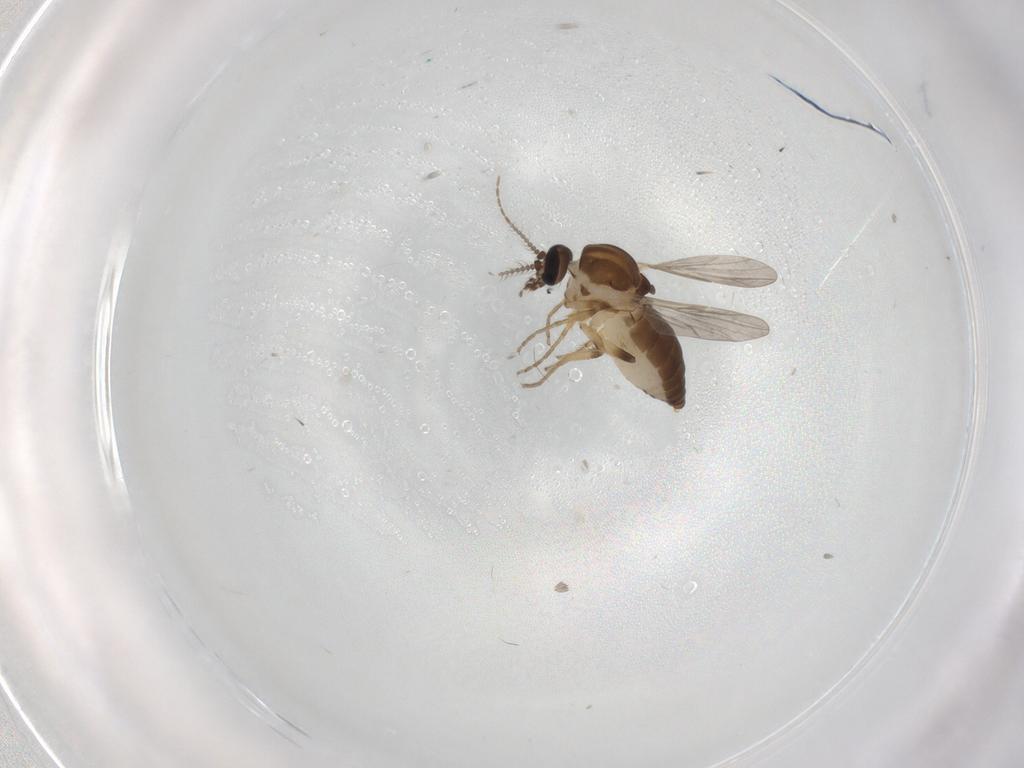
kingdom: Animalia
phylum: Arthropoda
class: Insecta
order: Diptera
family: Ceratopogonidae
